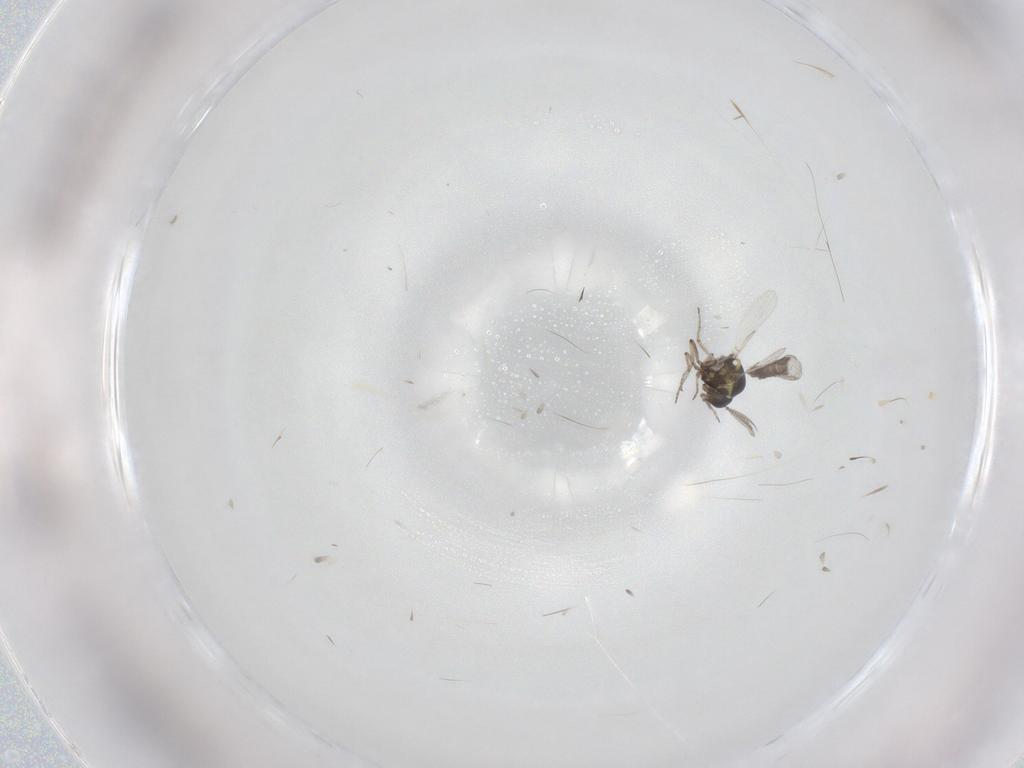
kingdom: Animalia
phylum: Arthropoda
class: Insecta
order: Diptera
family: Ceratopogonidae
